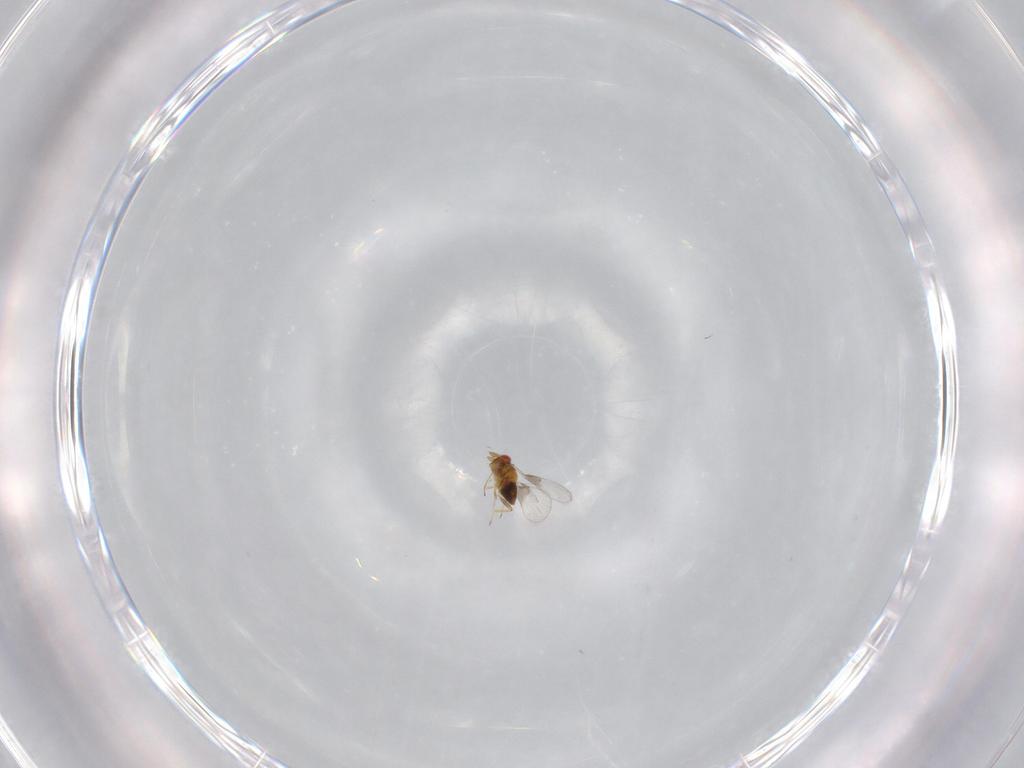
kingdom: Animalia
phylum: Arthropoda
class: Insecta
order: Hymenoptera
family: Trichogrammatidae
